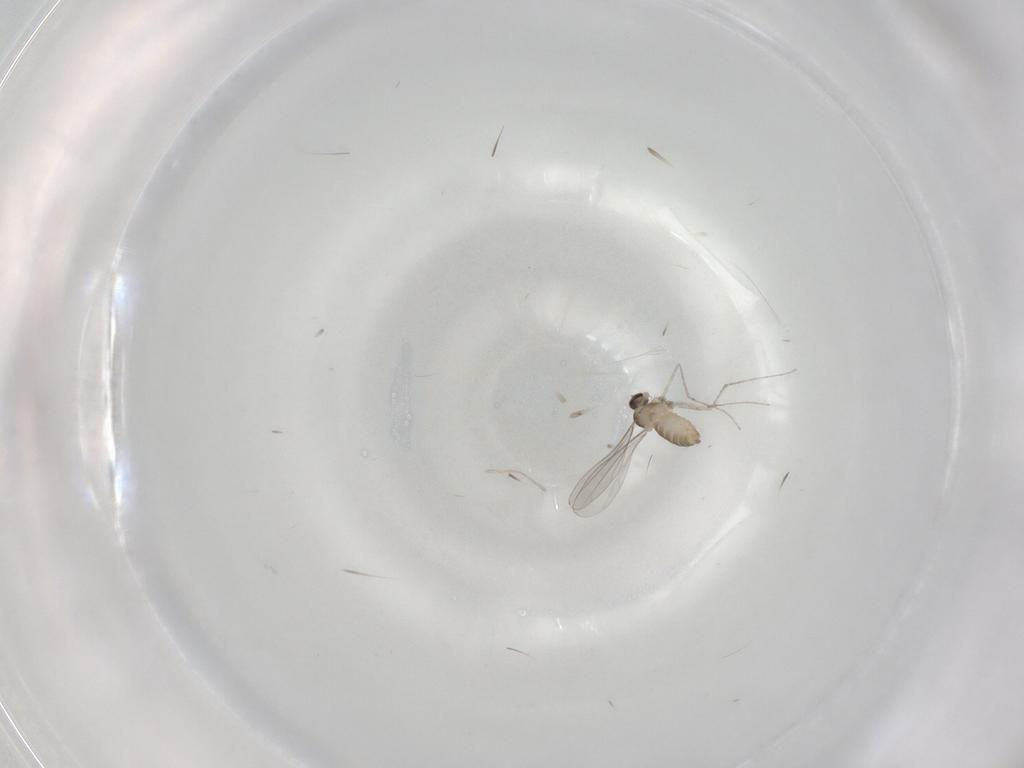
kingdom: Animalia
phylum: Arthropoda
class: Insecta
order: Diptera
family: Cecidomyiidae
